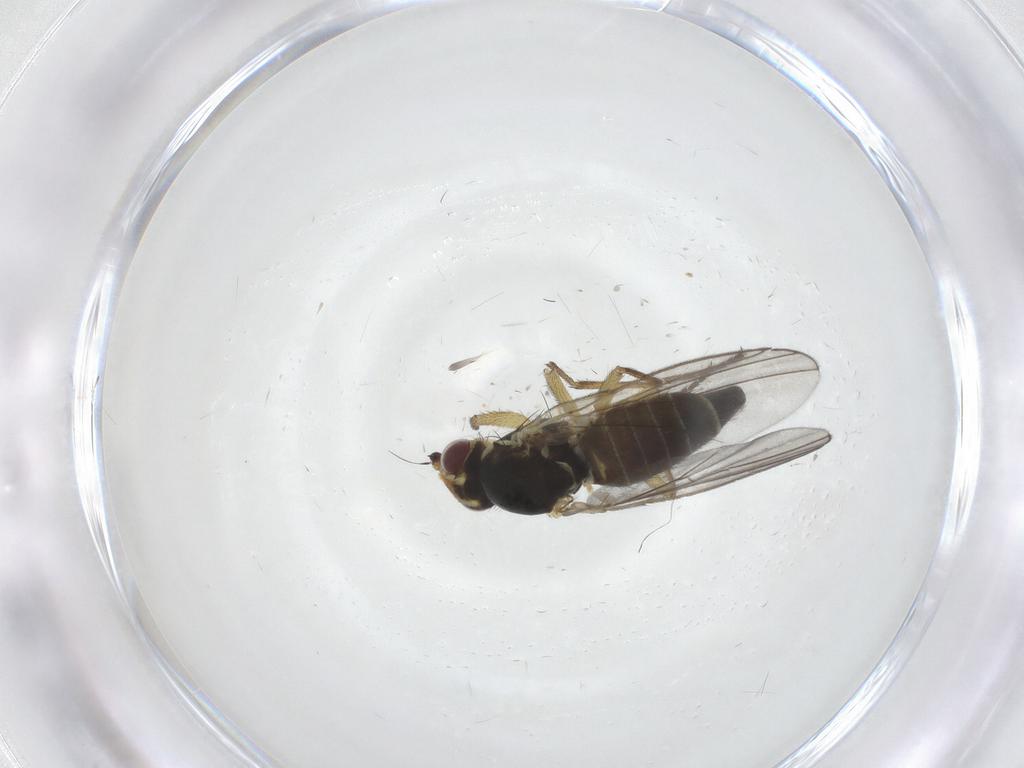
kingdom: Animalia
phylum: Arthropoda
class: Insecta
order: Diptera
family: Agromyzidae
